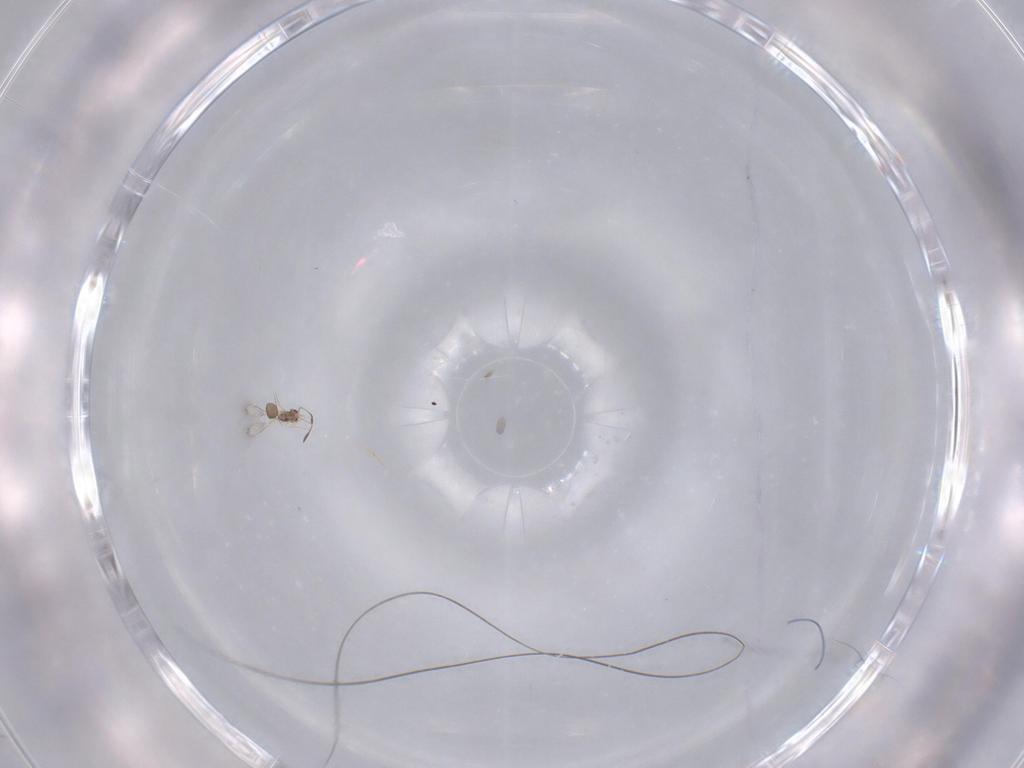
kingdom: Animalia
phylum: Arthropoda
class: Insecta
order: Hymenoptera
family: Mymarommatidae
